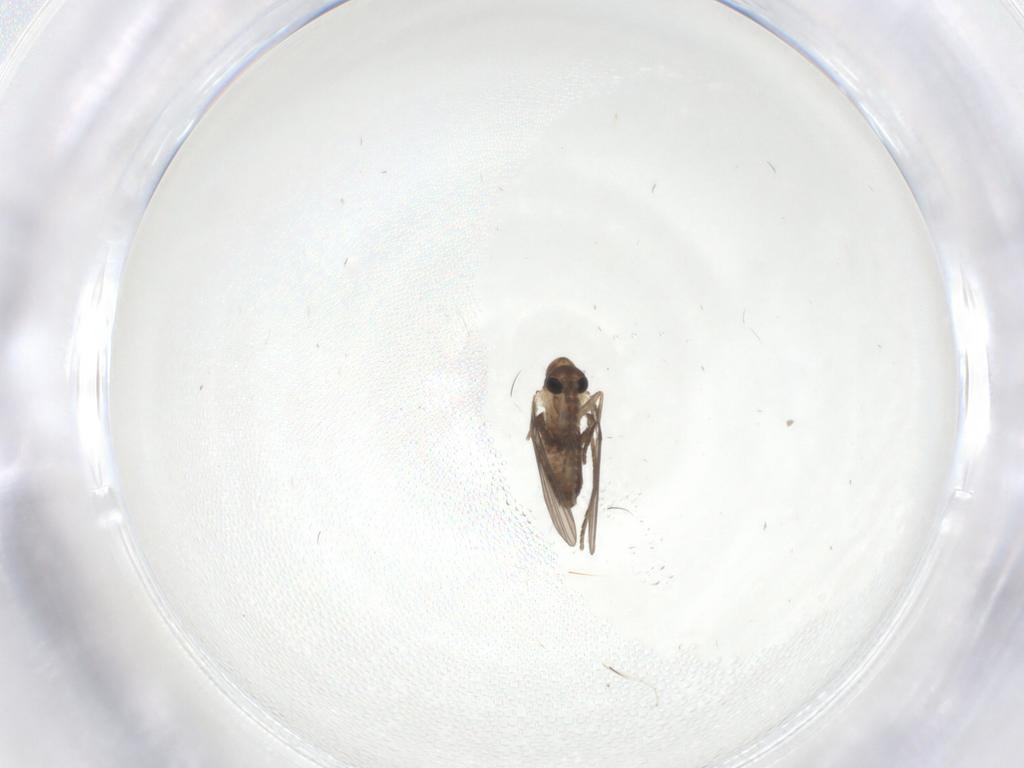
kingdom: Animalia
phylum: Arthropoda
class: Insecta
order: Diptera
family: Psychodidae
